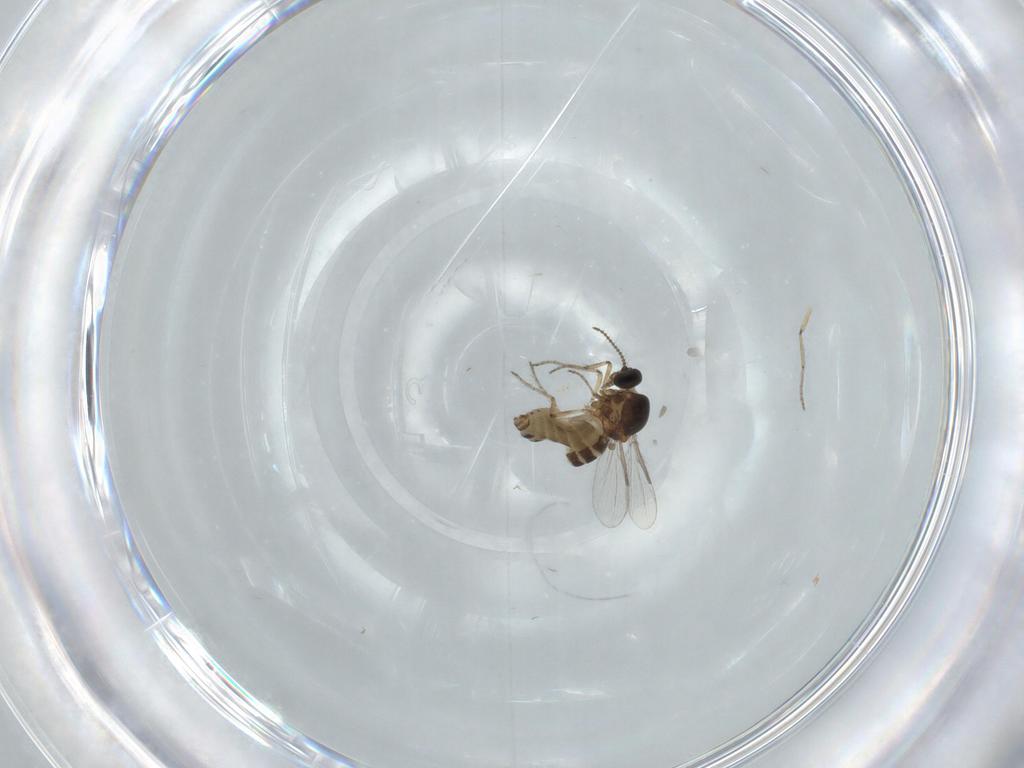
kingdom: Animalia
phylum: Arthropoda
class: Insecta
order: Diptera
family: Ceratopogonidae
